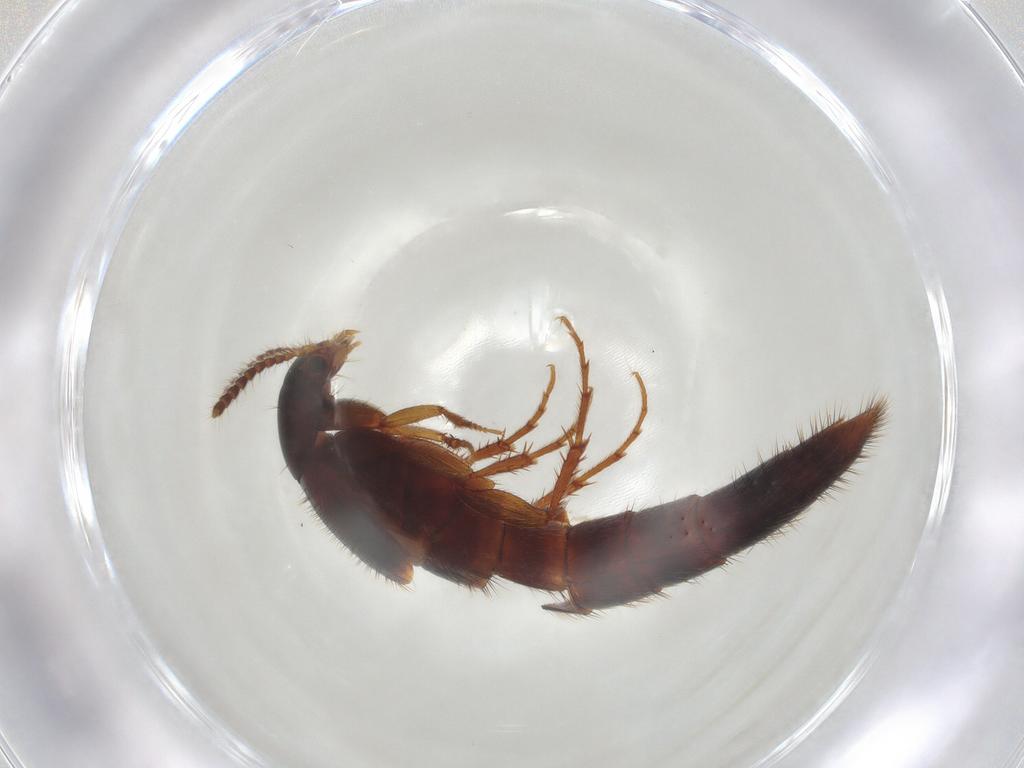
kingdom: Animalia
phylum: Arthropoda
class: Insecta
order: Coleoptera
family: Staphylinidae
